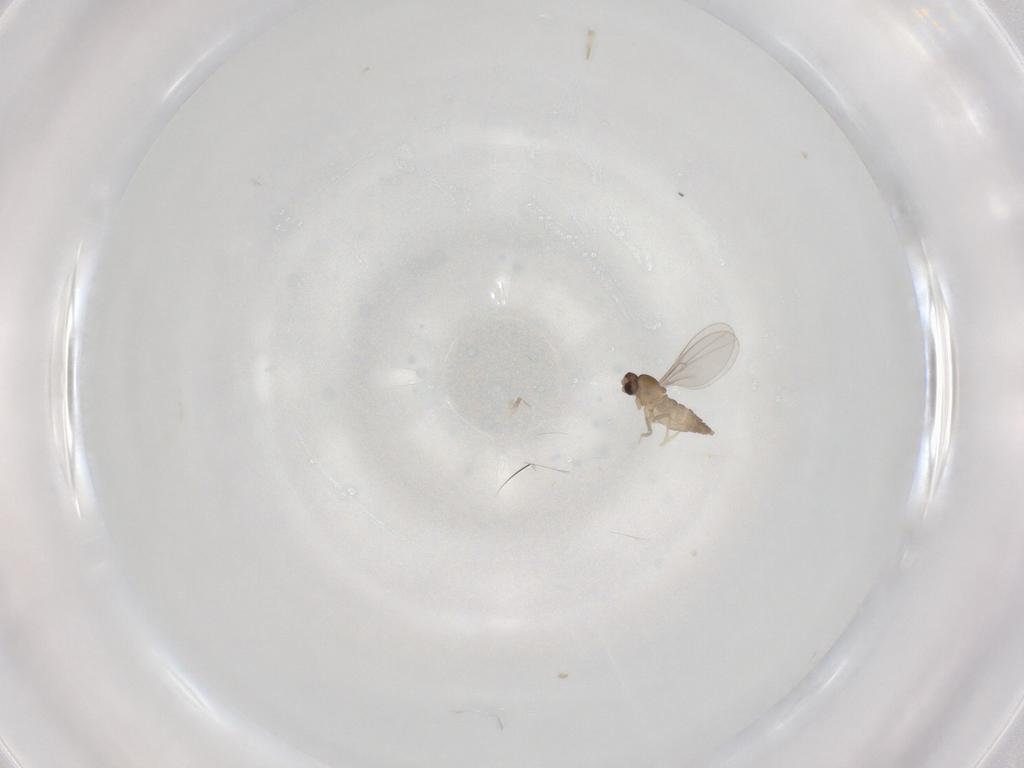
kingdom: Animalia
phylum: Arthropoda
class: Insecta
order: Diptera
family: Cecidomyiidae
